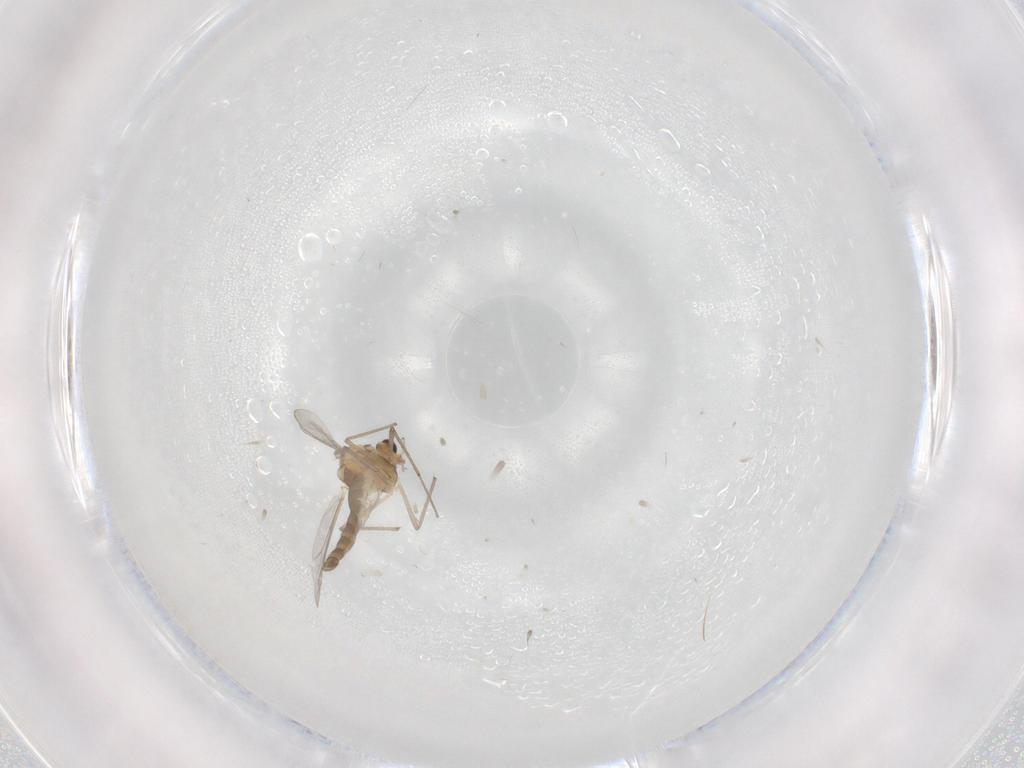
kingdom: Animalia
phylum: Arthropoda
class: Insecta
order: Diptera
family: Chironomidae
